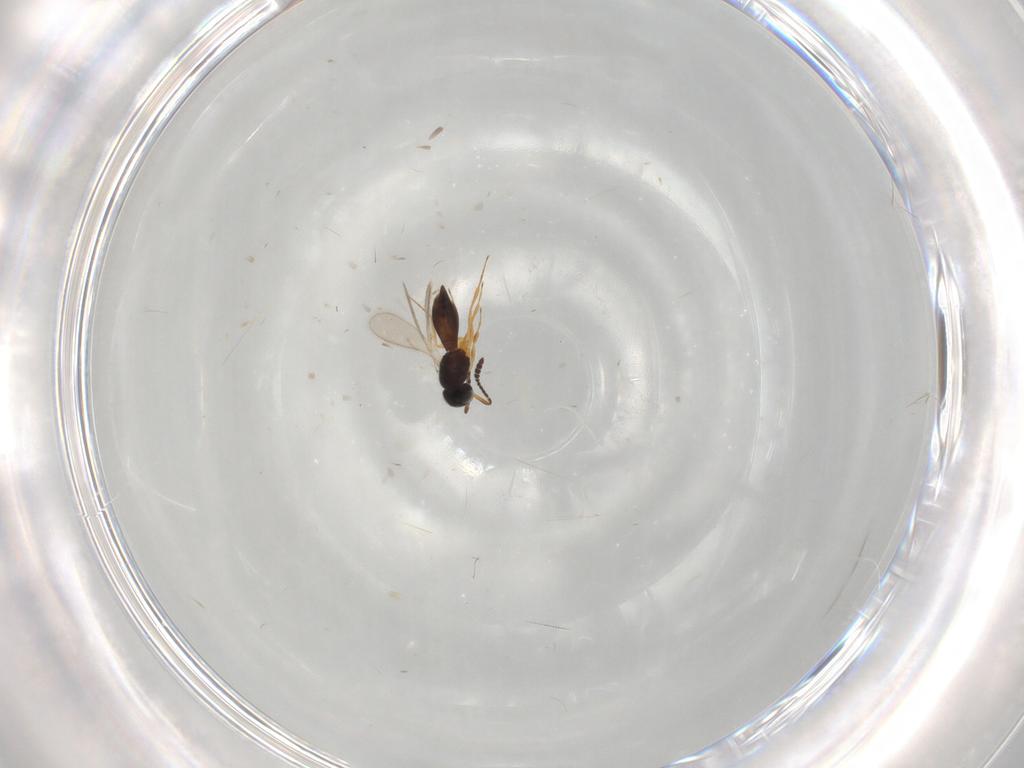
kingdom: Animalia
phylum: Arthropoda
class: Insecta
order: Hymenoptera
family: Scelionidae
